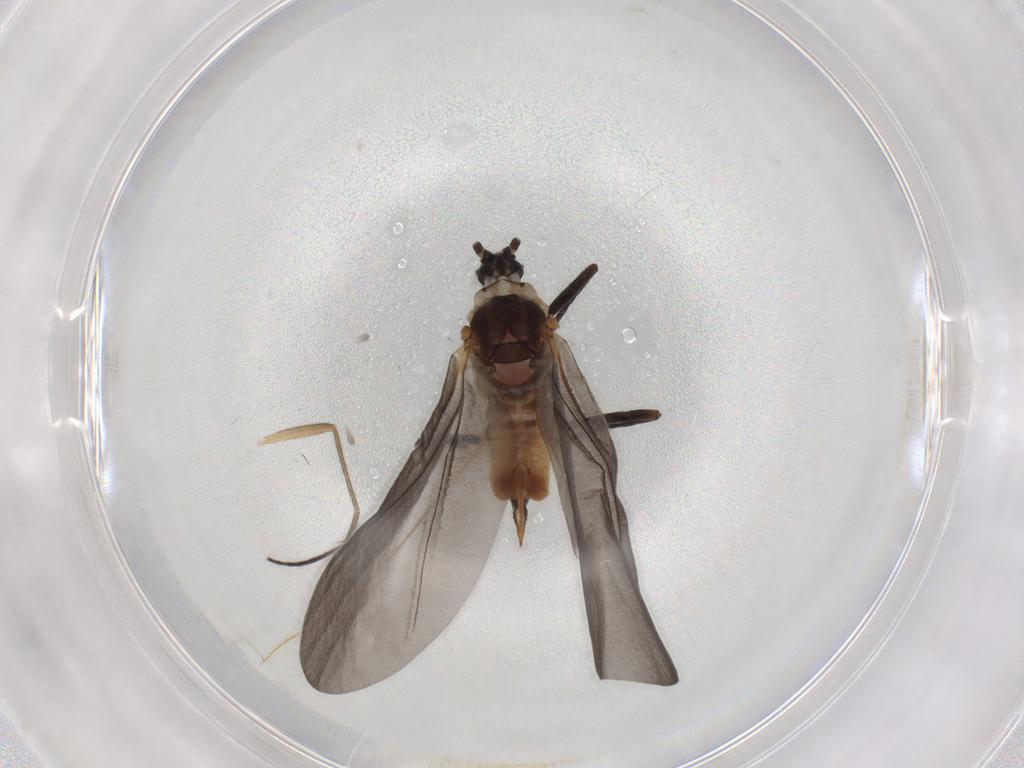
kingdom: Animalia
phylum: Arthropoda
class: Insecta
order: Hemiptera
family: Putoidae
